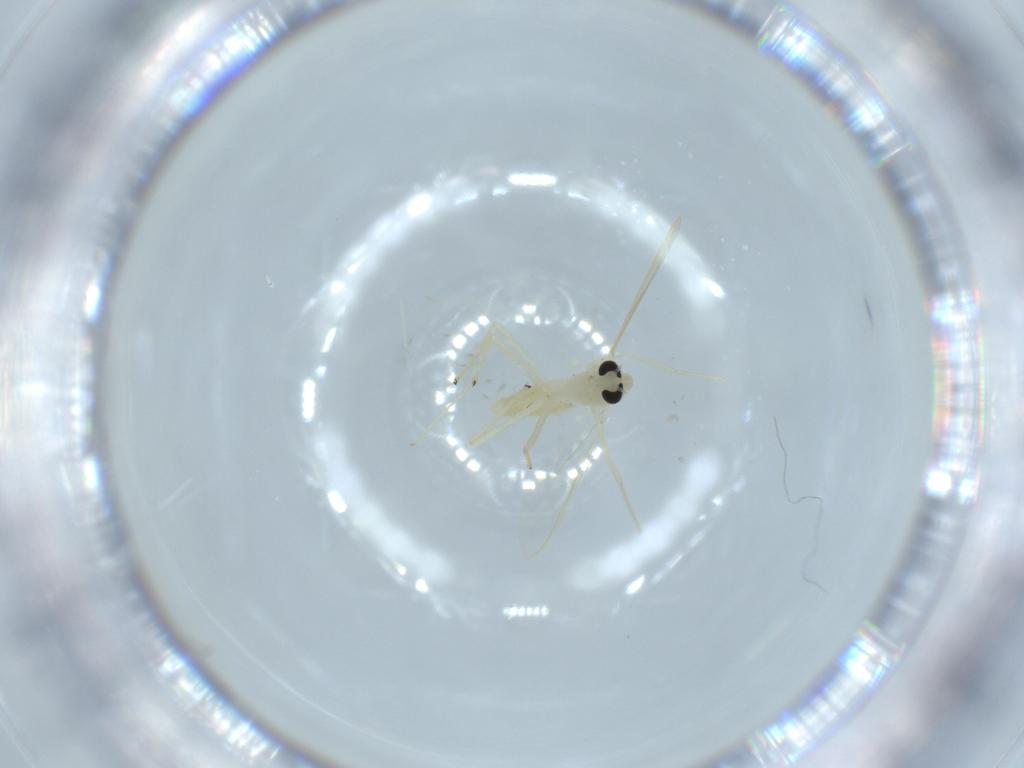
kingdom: Animalia
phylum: Arthropoda
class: Insecta
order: Diptera
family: Chironomidae
